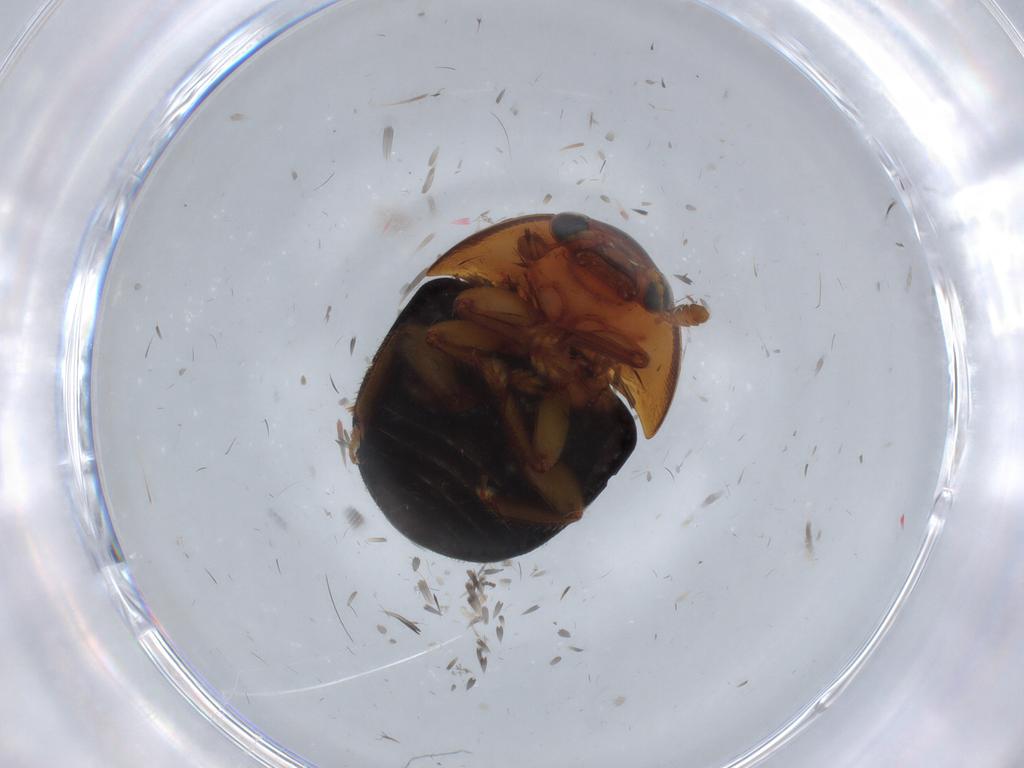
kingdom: Animalia
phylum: Arthropoda
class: Insecta
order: Coleoptera
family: Nitidulidae
